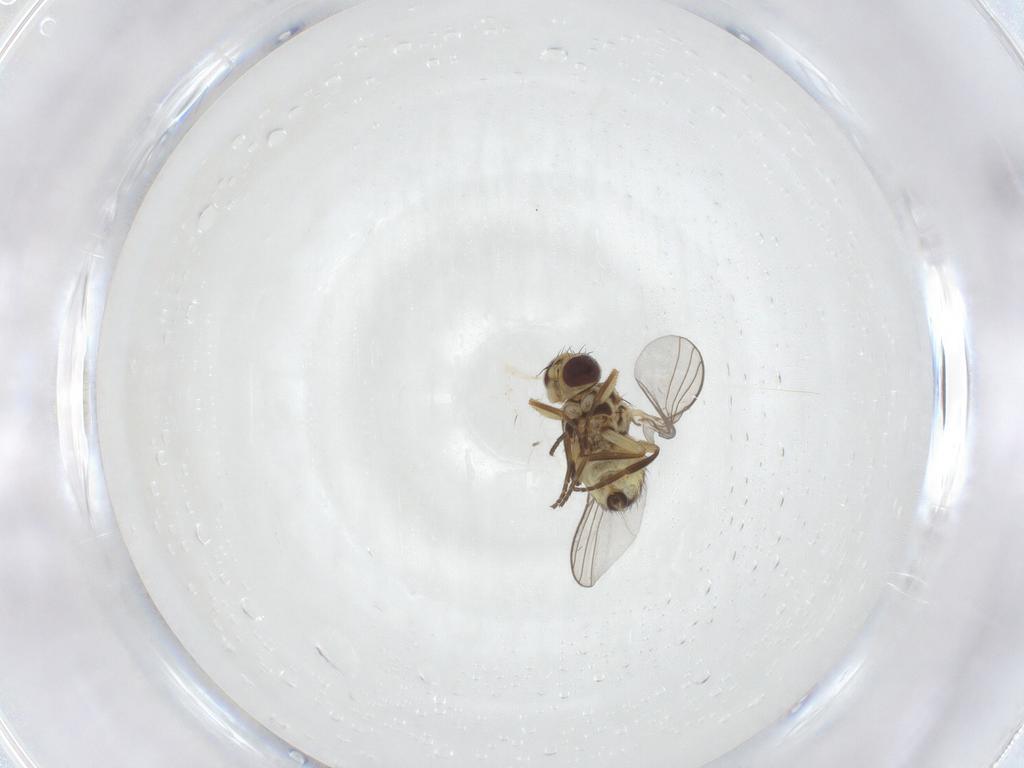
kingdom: Animalia
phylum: Arthropoda
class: Insecta
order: Diptera
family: Agromyzidae
